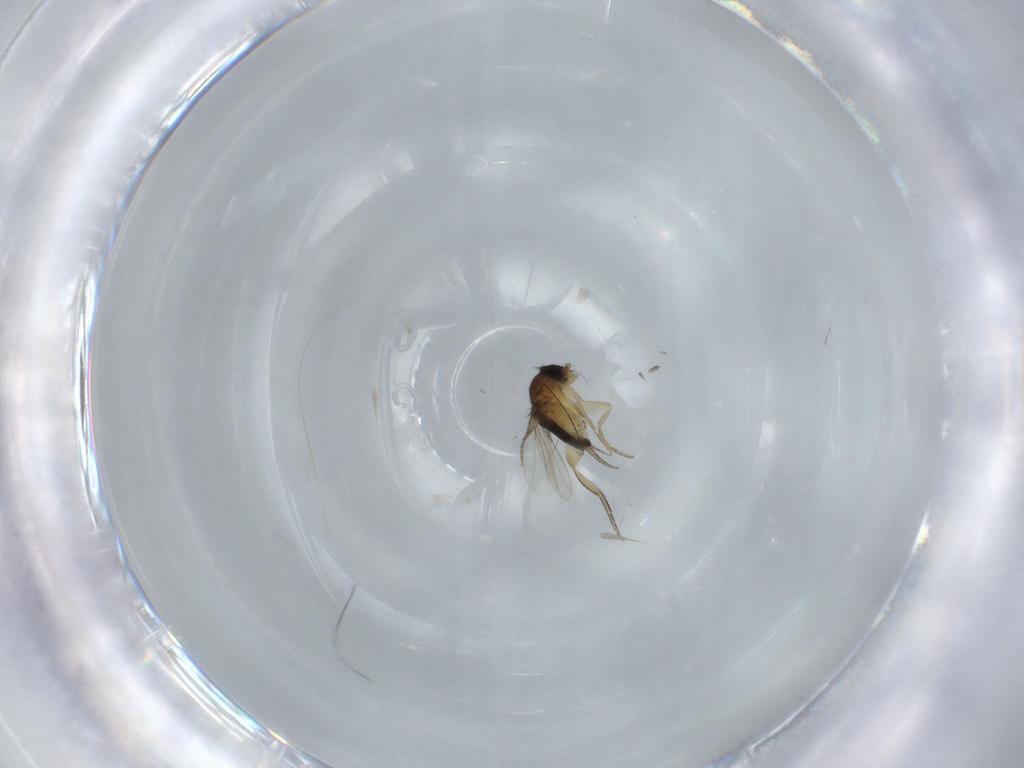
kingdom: Animalia
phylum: Arthropoda
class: Insecta
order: Diptera
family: Phoridae
